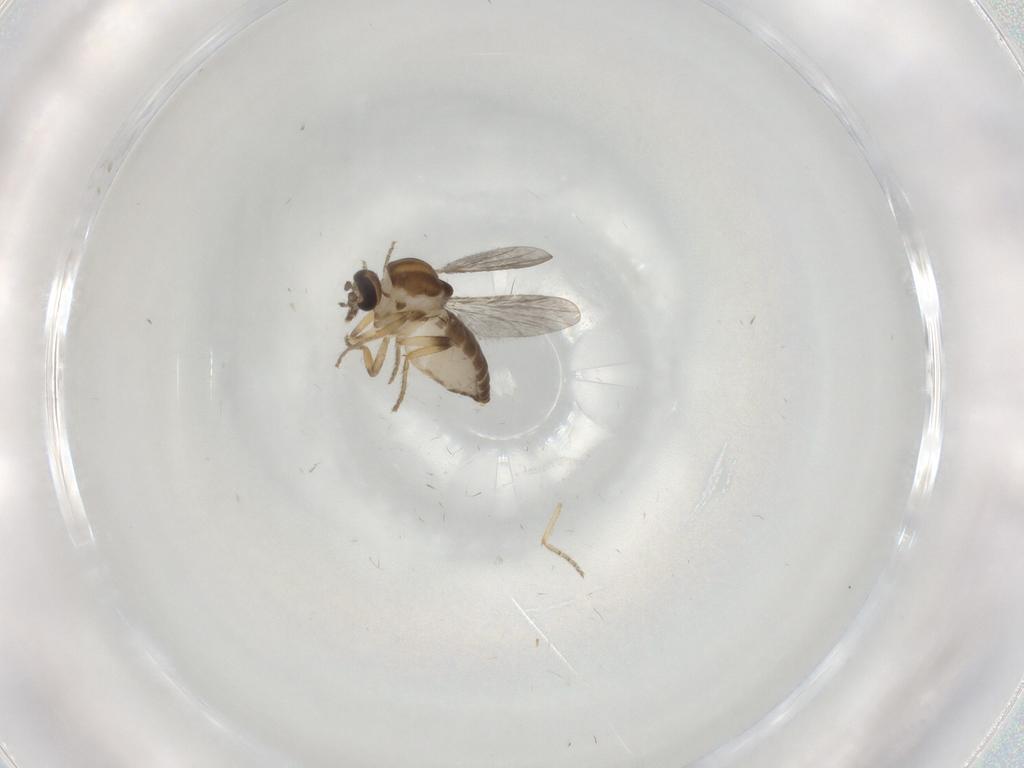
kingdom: Animalia
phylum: Arthropoda
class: Insecta
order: Diptera
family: Ceratopogonidae
